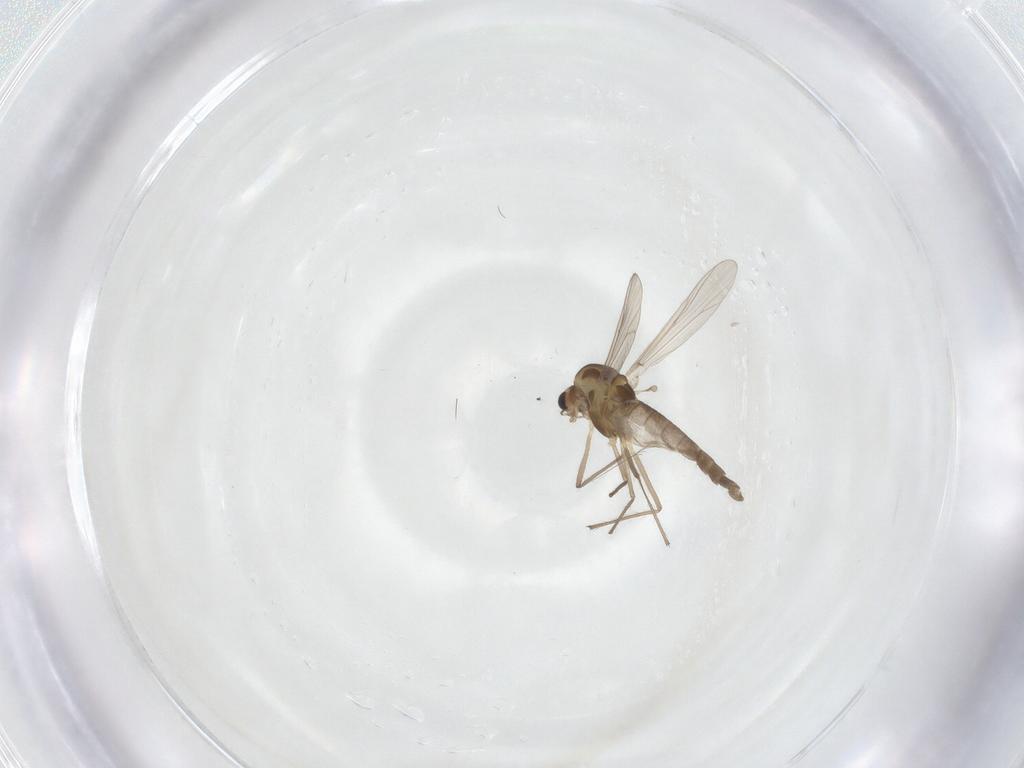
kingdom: Animalia
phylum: Arthropoda
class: Insecta
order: Diptera
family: Chironomidae
